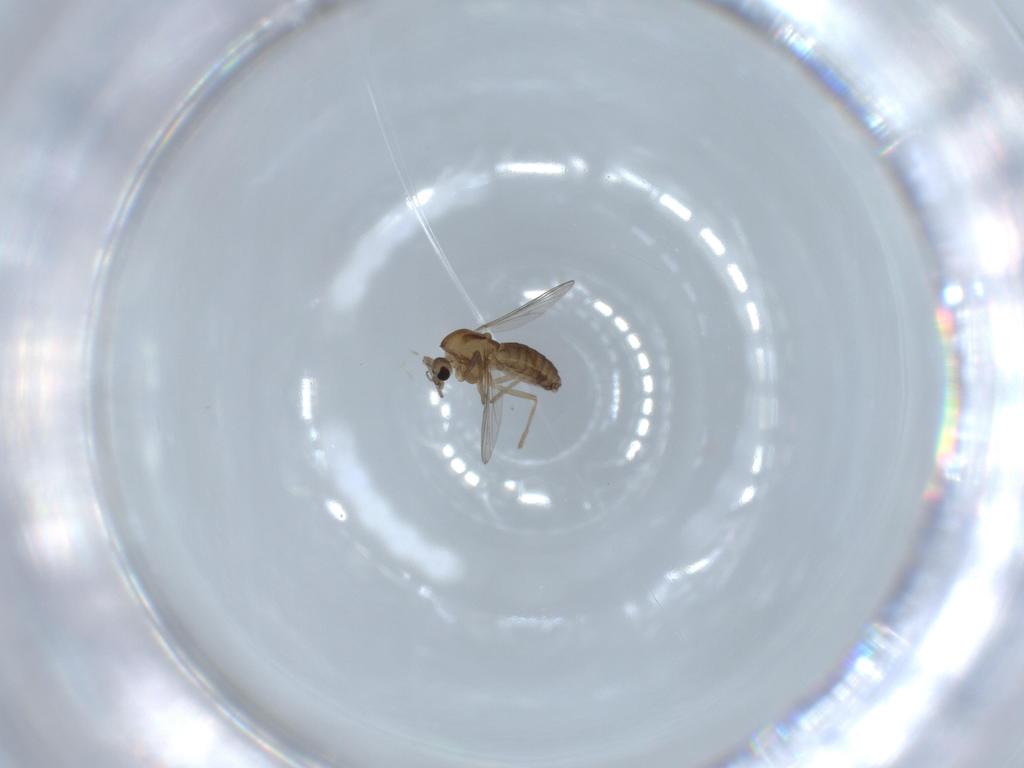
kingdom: Animalia
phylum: Arthropoda
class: Insecta
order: Diptera
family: Chironomidae
